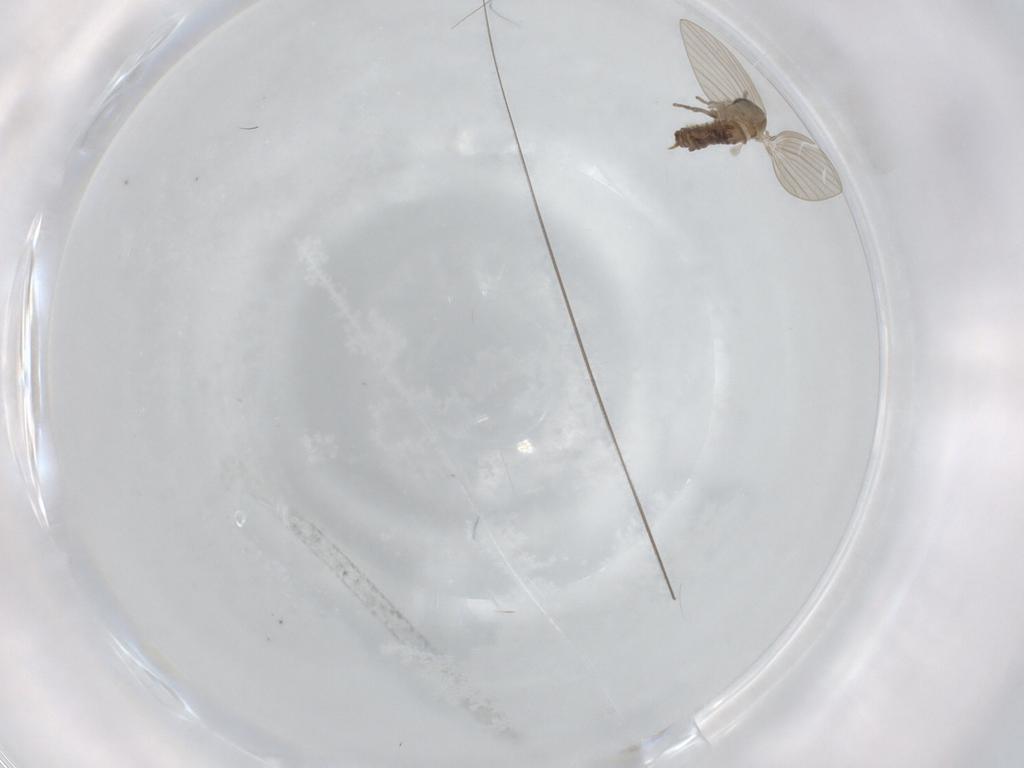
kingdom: Animalia
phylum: Arthropoda
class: Insecta
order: Diptera
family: Psychodidae
